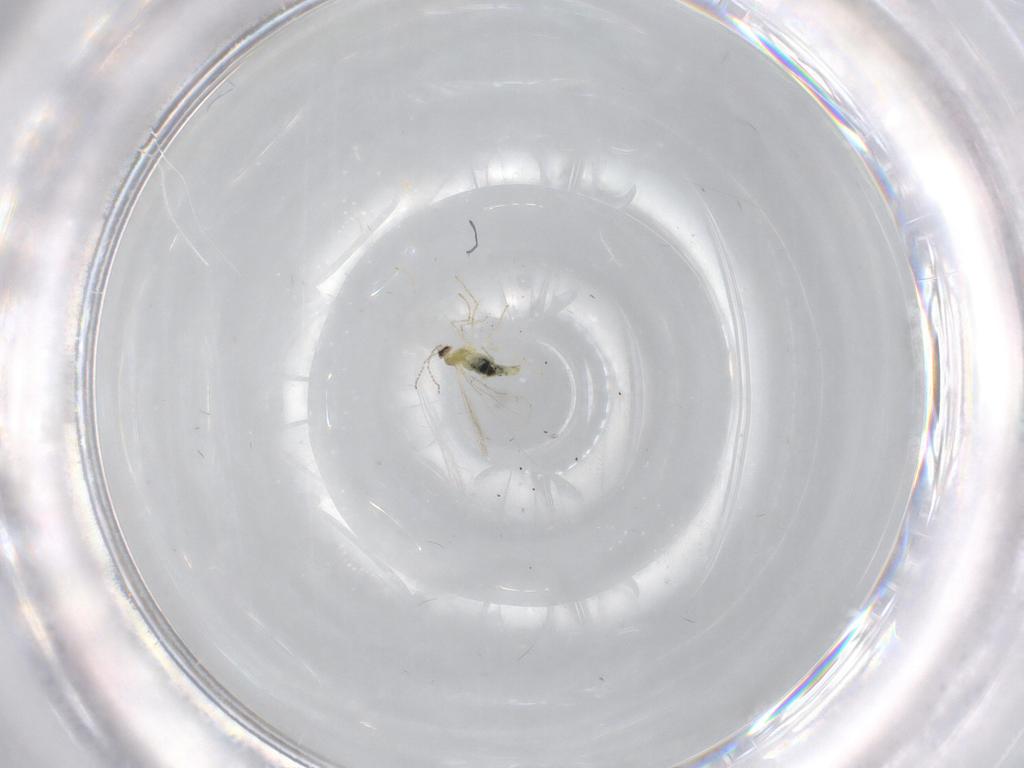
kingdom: Animalia
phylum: Arthropoda
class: Insecta
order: Diptera
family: Cecidomyiidae
